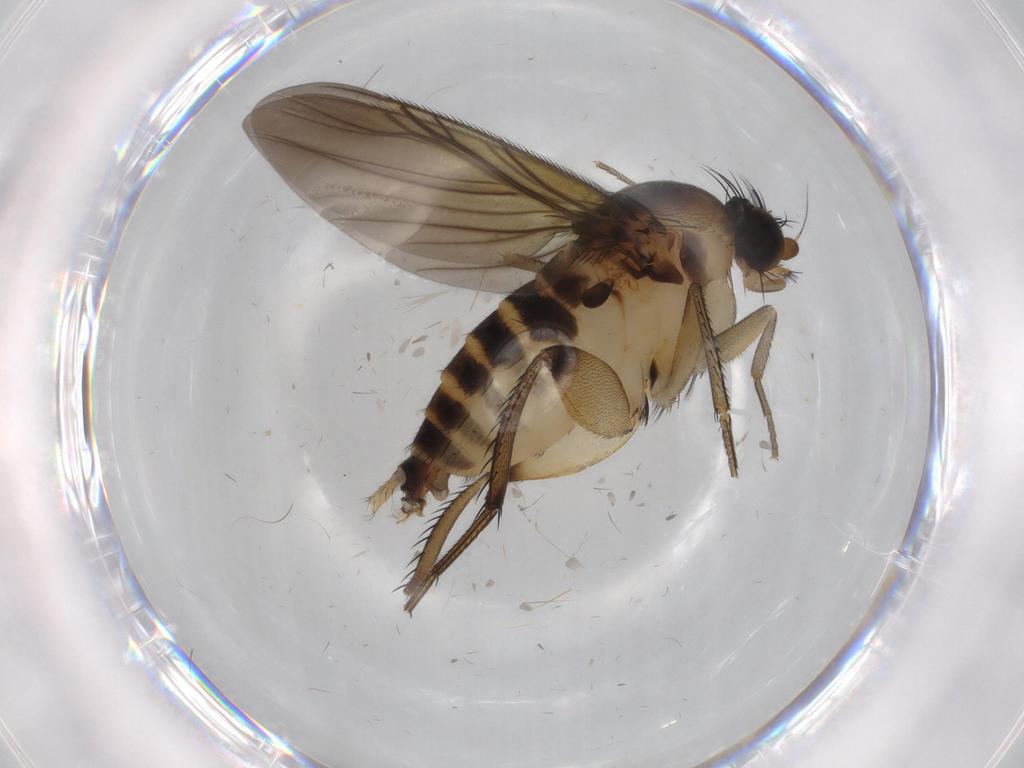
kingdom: Animalia
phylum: Arthropoda
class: Insecta
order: Diptera
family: Phoridae
